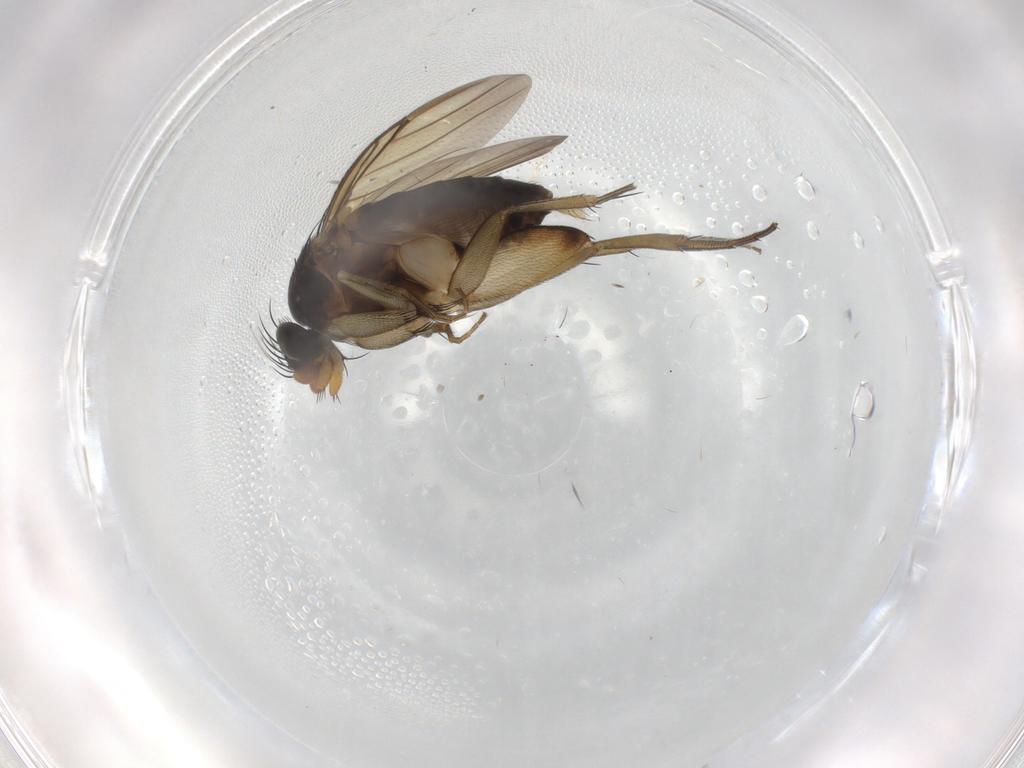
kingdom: Animalia
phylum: Arthropoda
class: Insecta
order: Diptera
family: Phoridae
